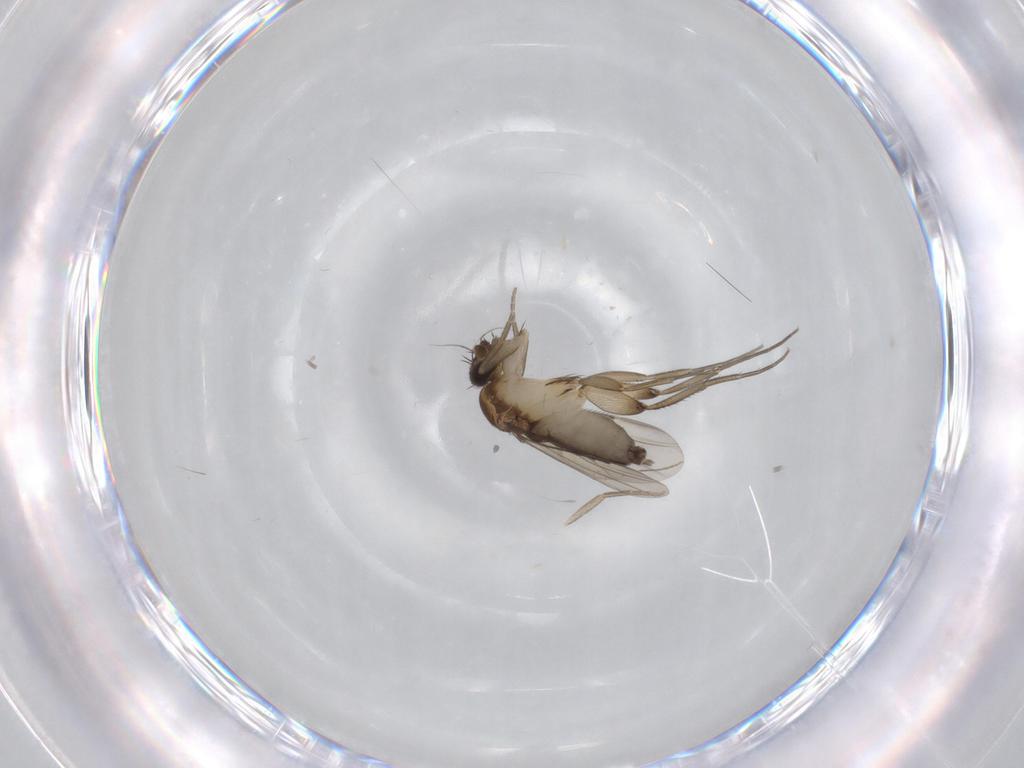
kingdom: Animalia
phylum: Arthropoda
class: Insecta
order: Diptera
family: Phoridae
